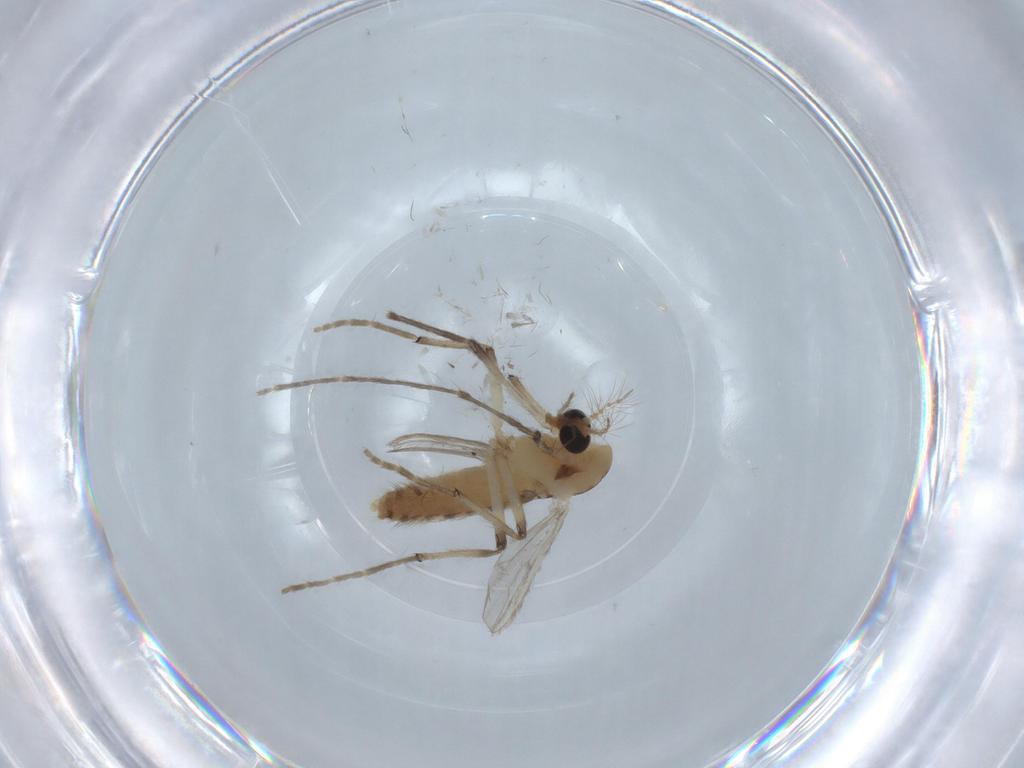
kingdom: Animalia
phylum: Arthropoda
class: Insecta
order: Diptera
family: Chironomidae
